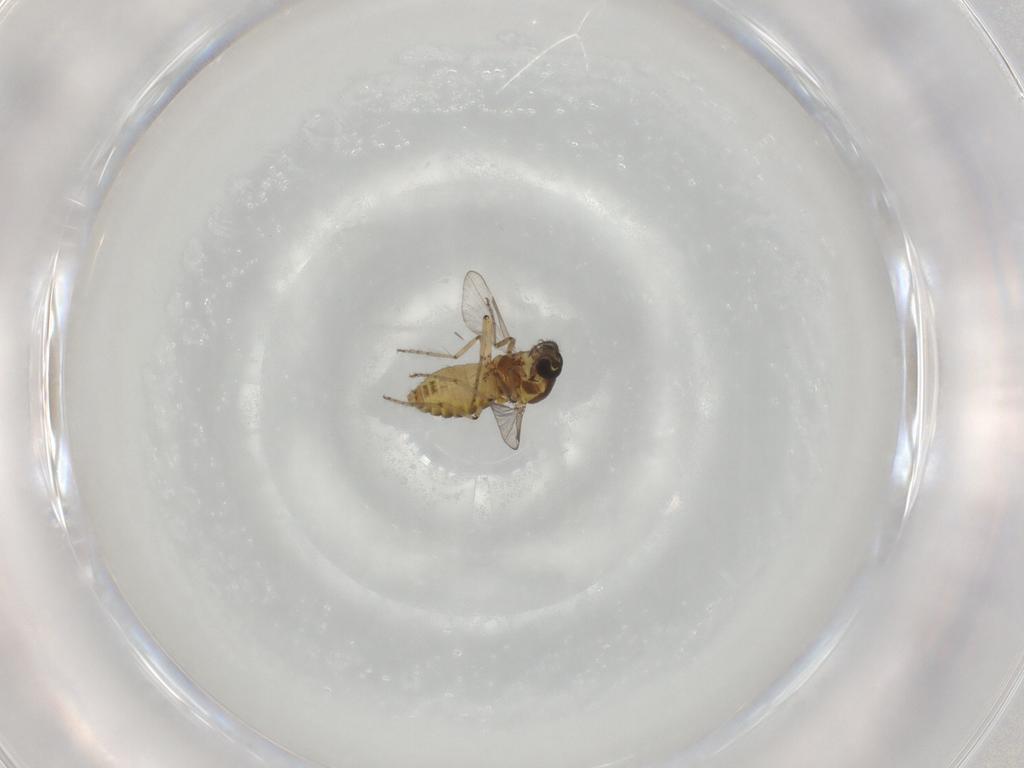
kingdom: Animalia
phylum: Arthropoda
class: Insecta
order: Diptera
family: Ceratopogonidae
